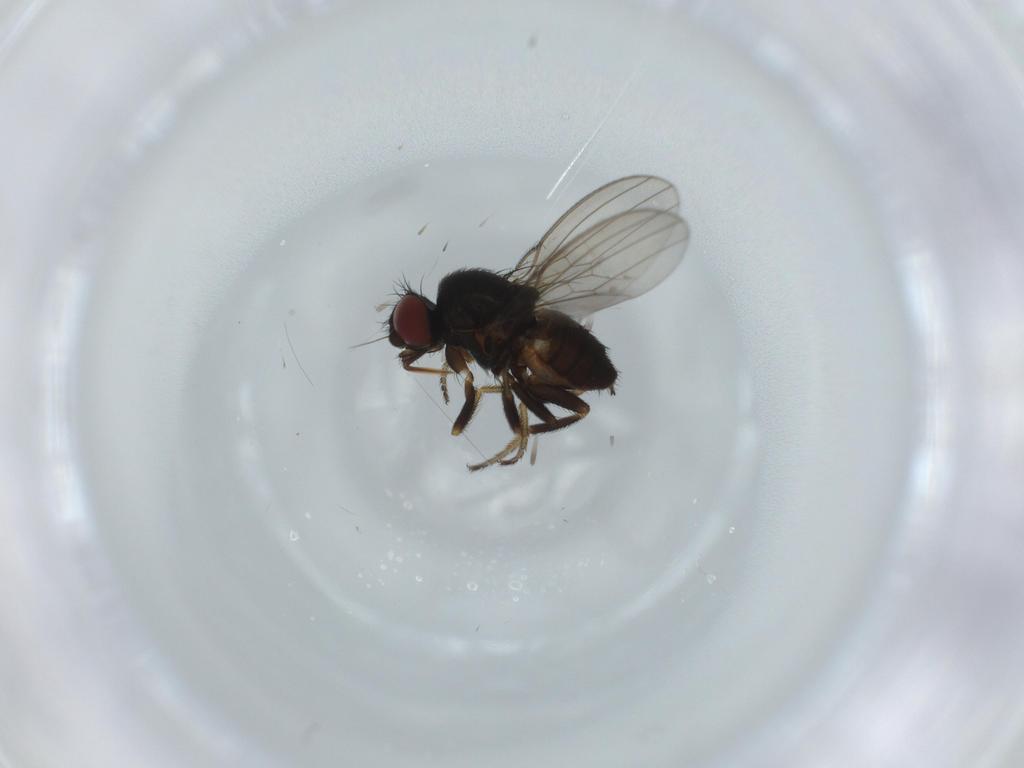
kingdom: Animalia
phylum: Arthropoda
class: Insecta
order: Diptera
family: Milichiidae
